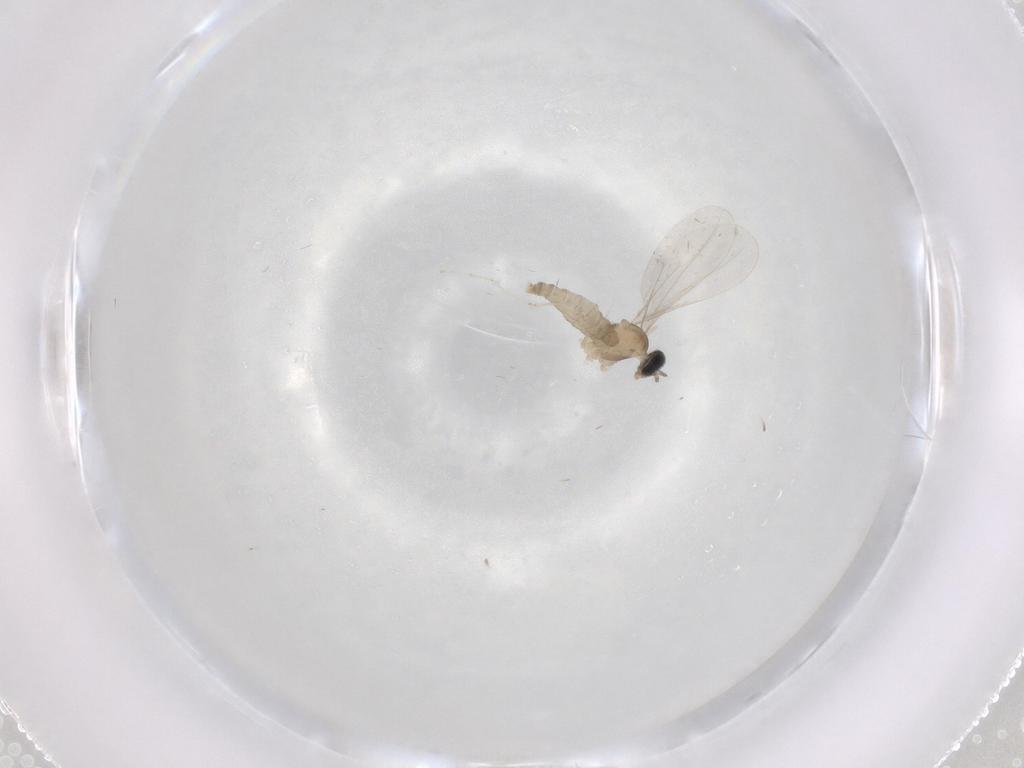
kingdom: Animalia
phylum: Arthropoda
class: Insecta
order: Diptera
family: Cecidomyiidae
